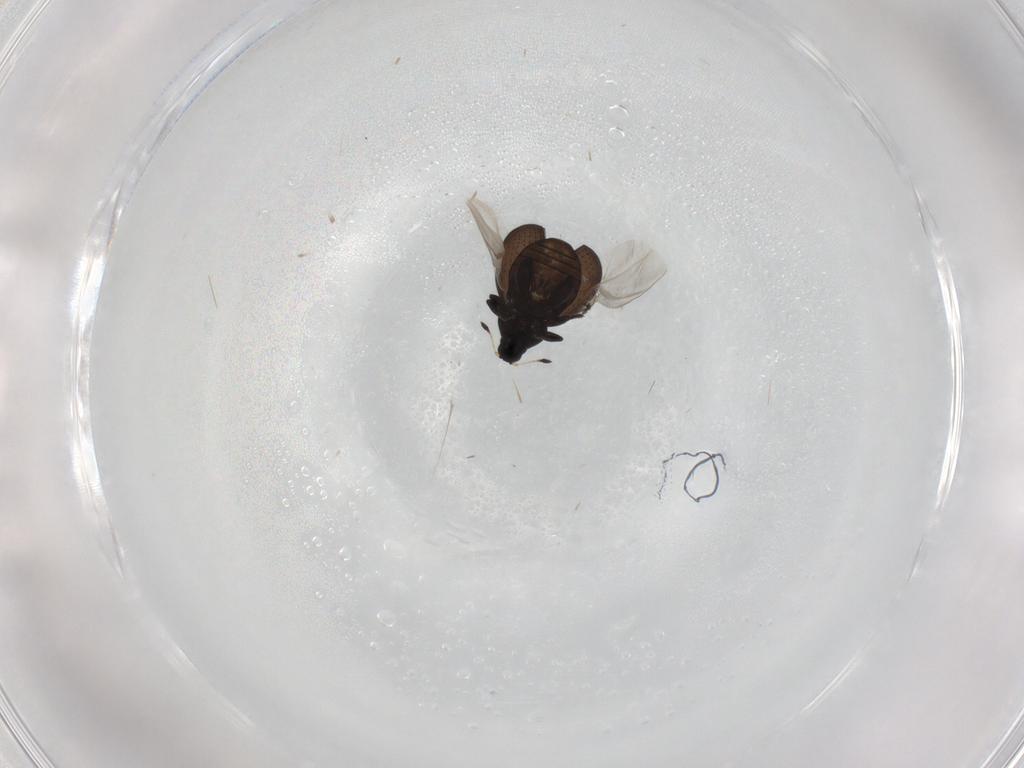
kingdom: Animalia
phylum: Arthropoda
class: Insecta
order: Coleoptera
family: Curculionidae
